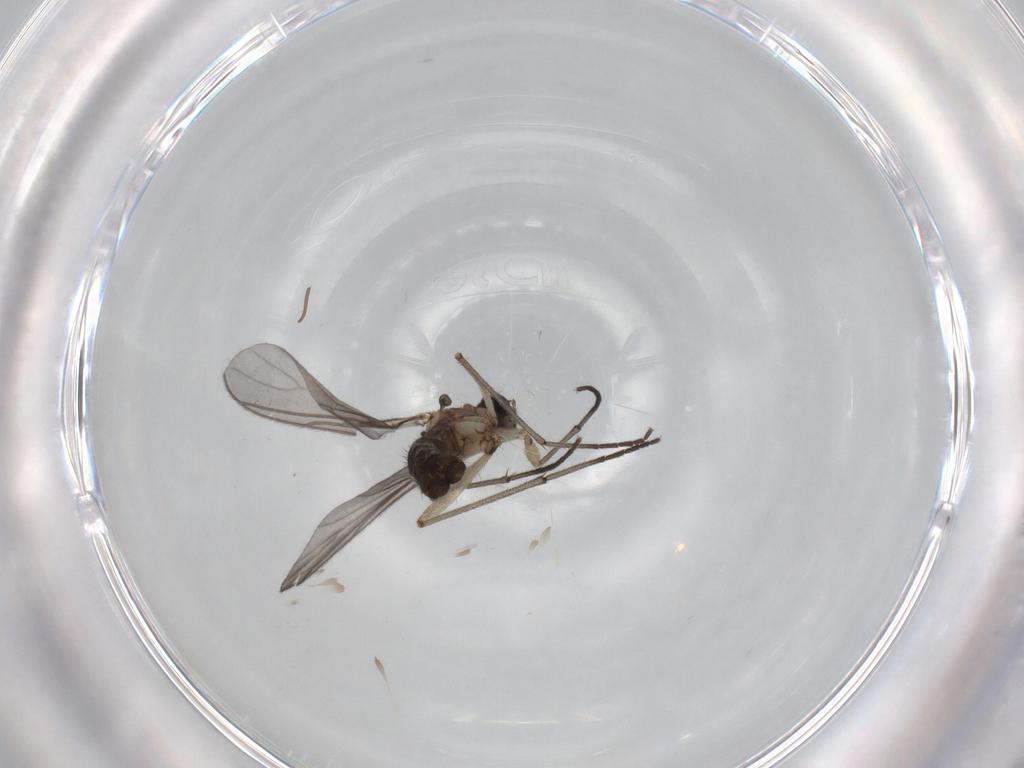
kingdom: Animalia
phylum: Arthropoda
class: Insecta
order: Diptera
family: Sciaridae
